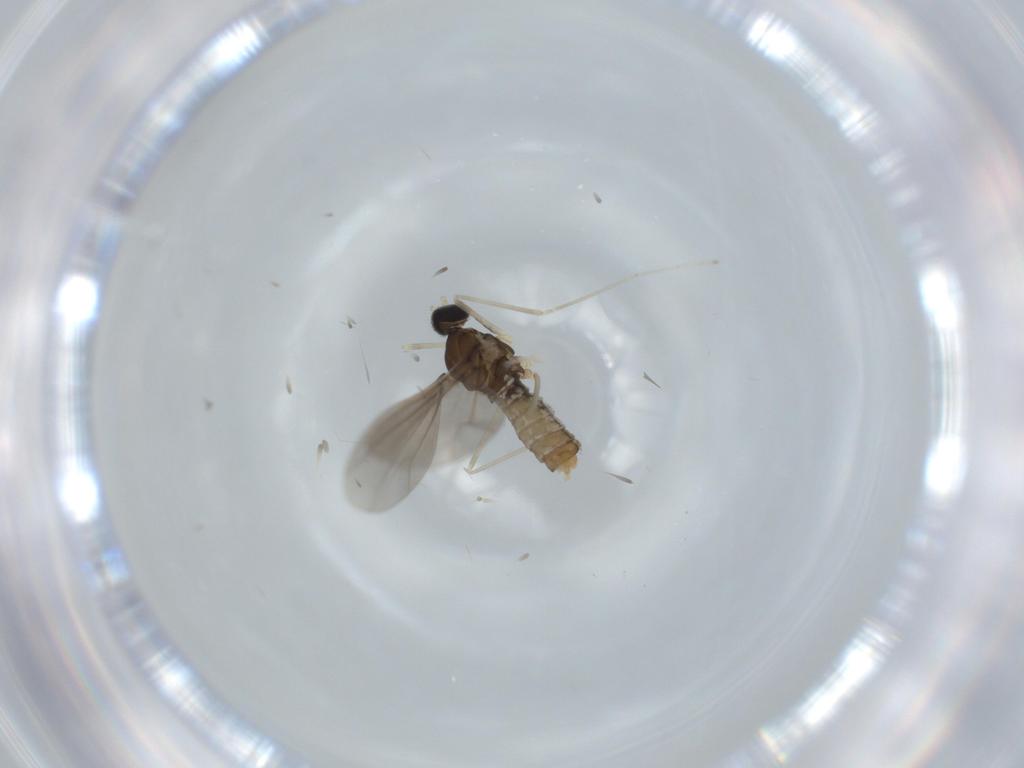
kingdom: Animalia
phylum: Arthropoda
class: Insecta
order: Diptera
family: Cecidomyiidae
